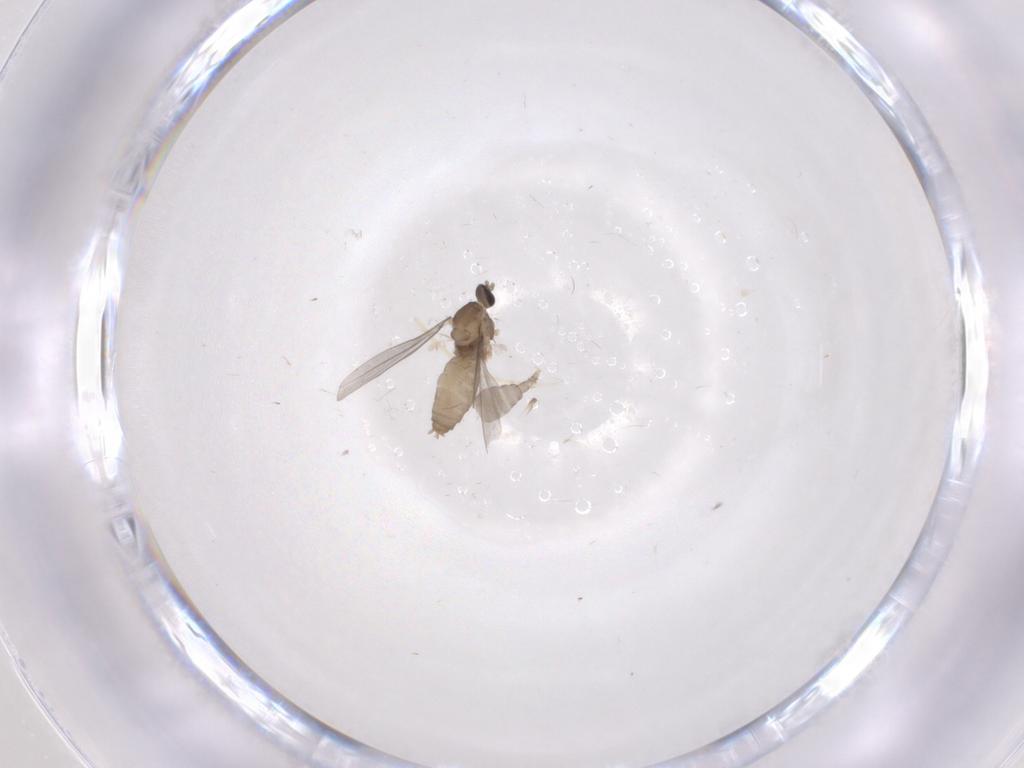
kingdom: Animalia
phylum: Arthropoda
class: Insecta
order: Diptera
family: Cecidomyiidae
